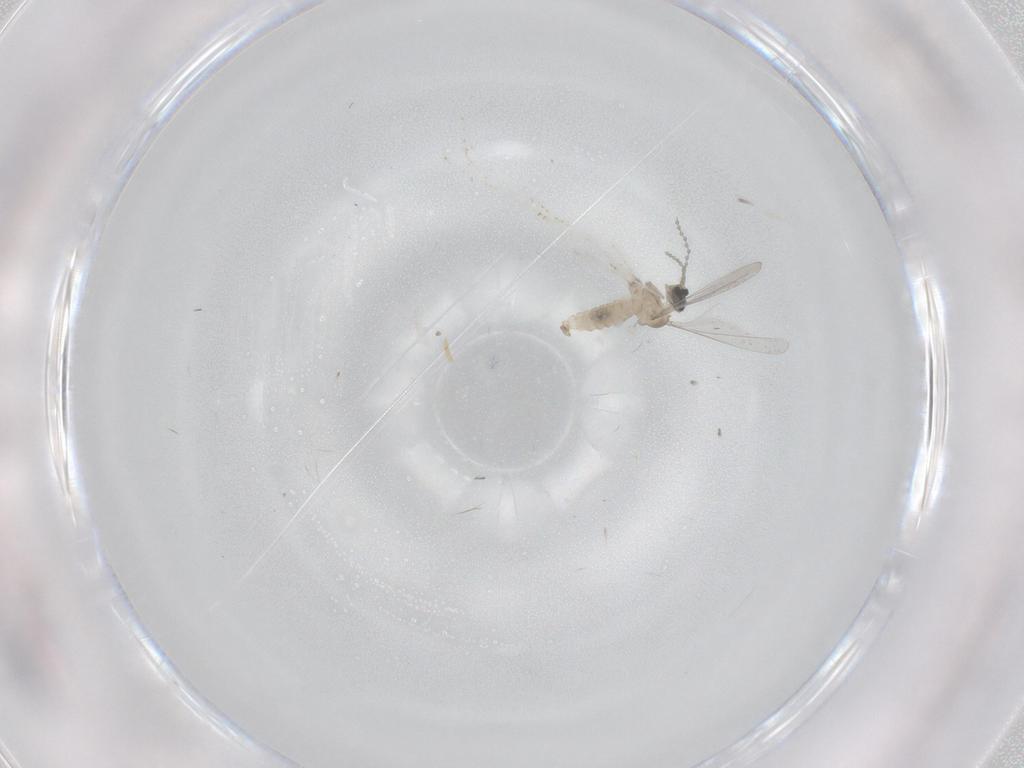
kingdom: Animalia
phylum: Arthropoda
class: Insecta
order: Diptera
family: Cecidomyiidae
